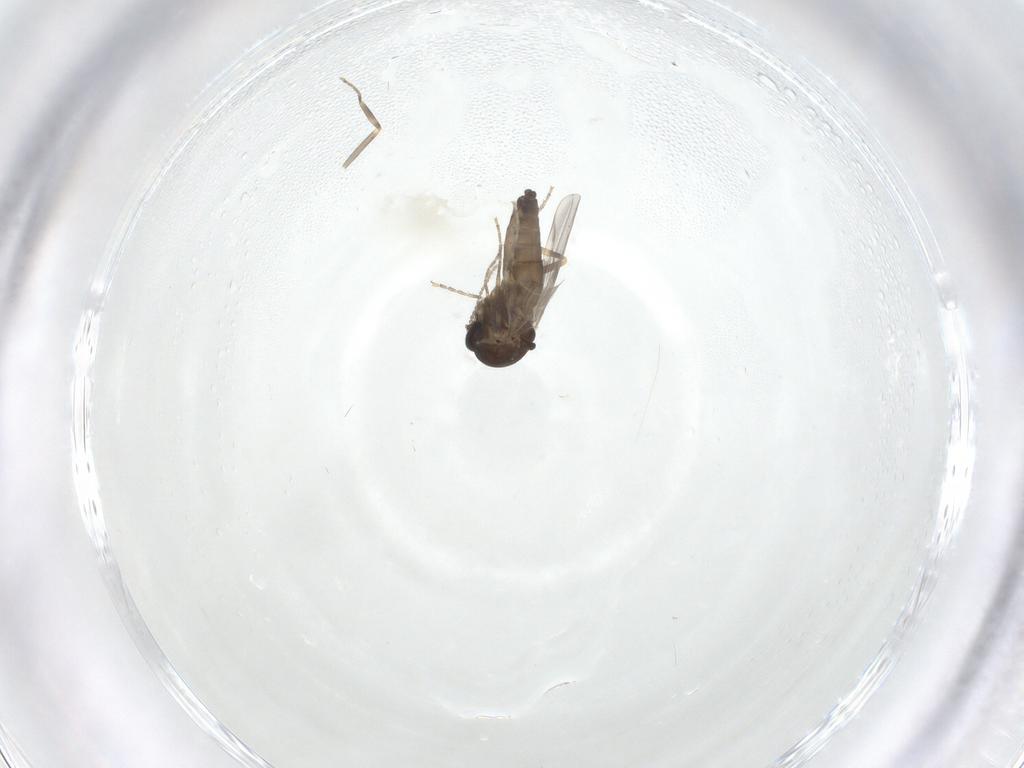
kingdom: Animalia
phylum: Arthropoda
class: Insecta
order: Diptera
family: Ceratopogonidae
